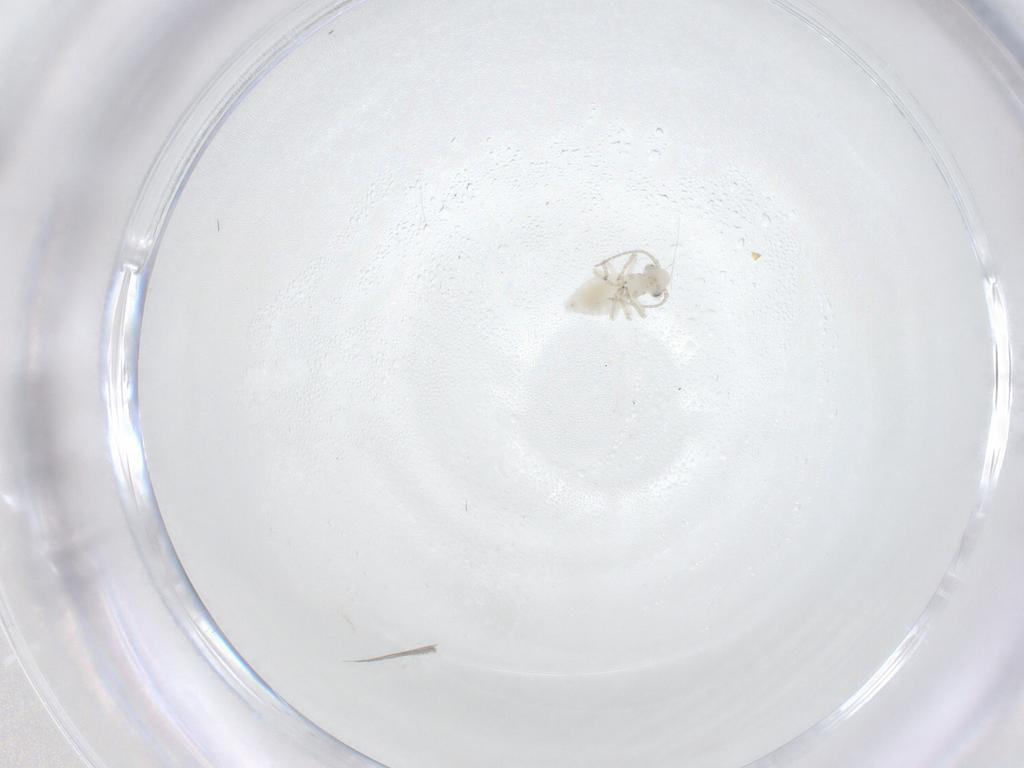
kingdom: Animalia
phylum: Arthropoda
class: Insecta
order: Psocodea
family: Caeciliusidae
